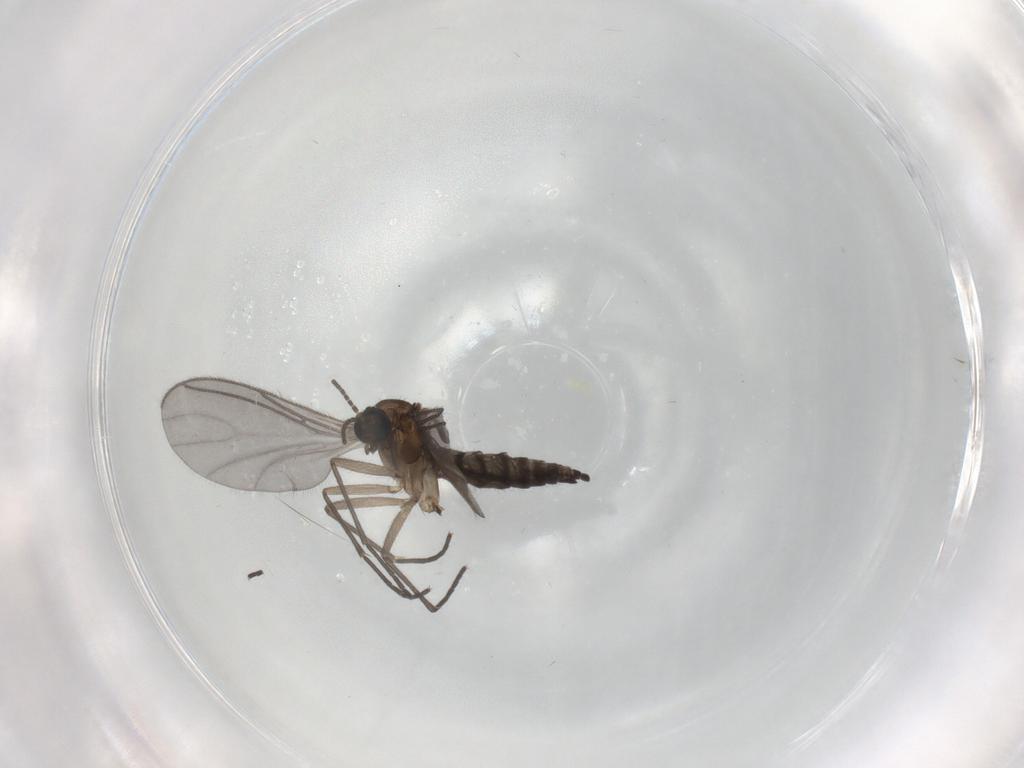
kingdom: Animalia
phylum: Arthropoda
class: Insecta
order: Diptera
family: Sciaridae
